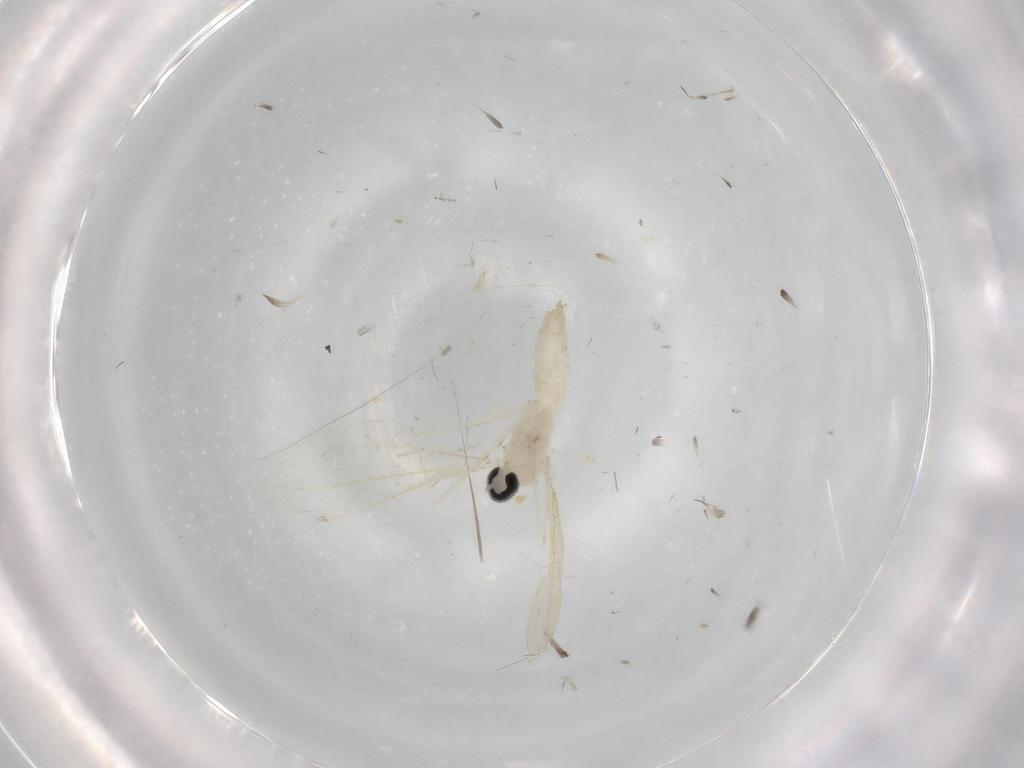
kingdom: Animalia
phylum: Arthropoda
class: Insecta
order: Diptera
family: Cecidomyiidae
